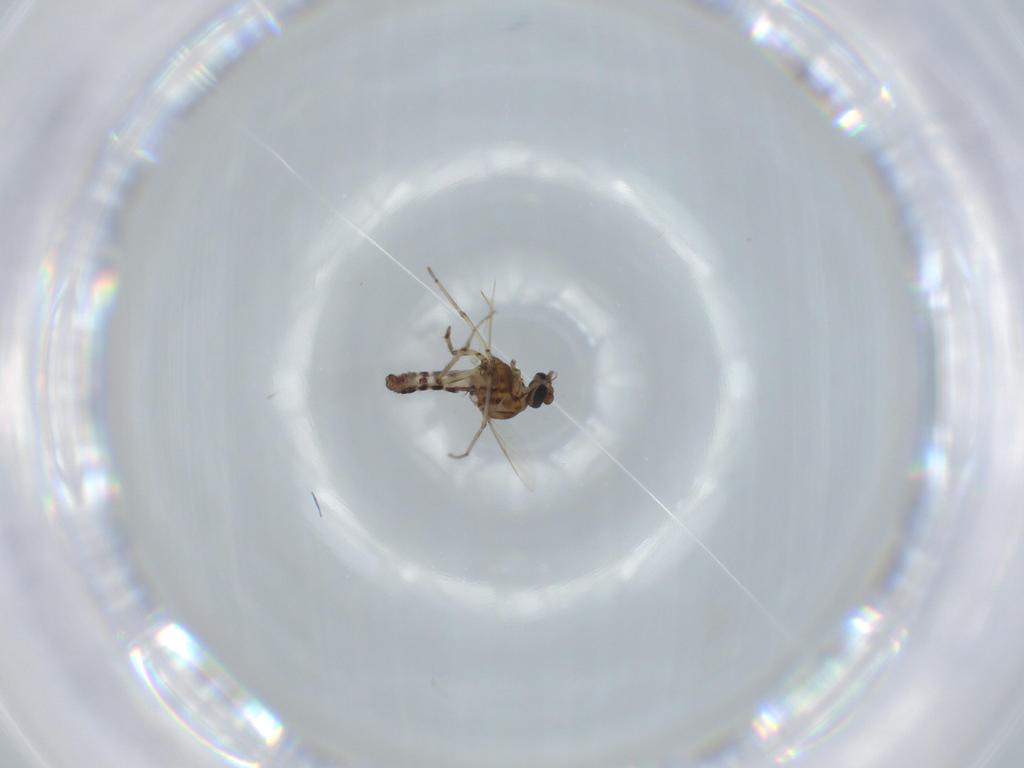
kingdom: Animalia
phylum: Arthropoda
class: Insecta
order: Diptera
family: Ceratopogonidae
